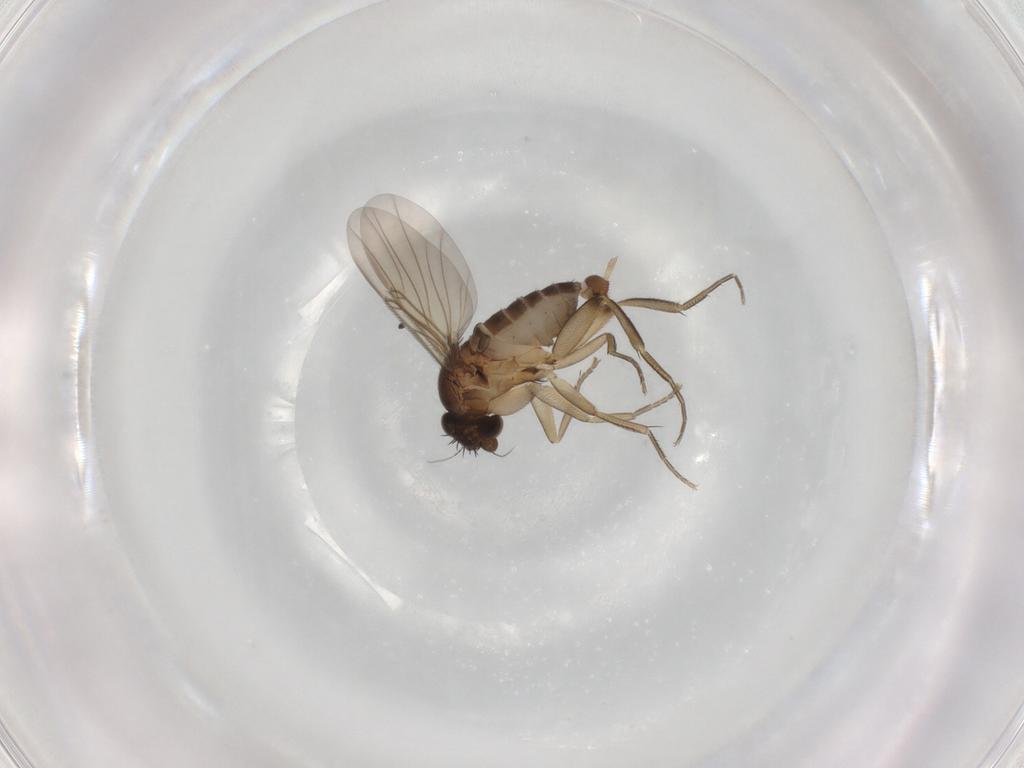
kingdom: Animalia
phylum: Arthropoda
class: Insecta
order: Diptera
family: Phoridae
